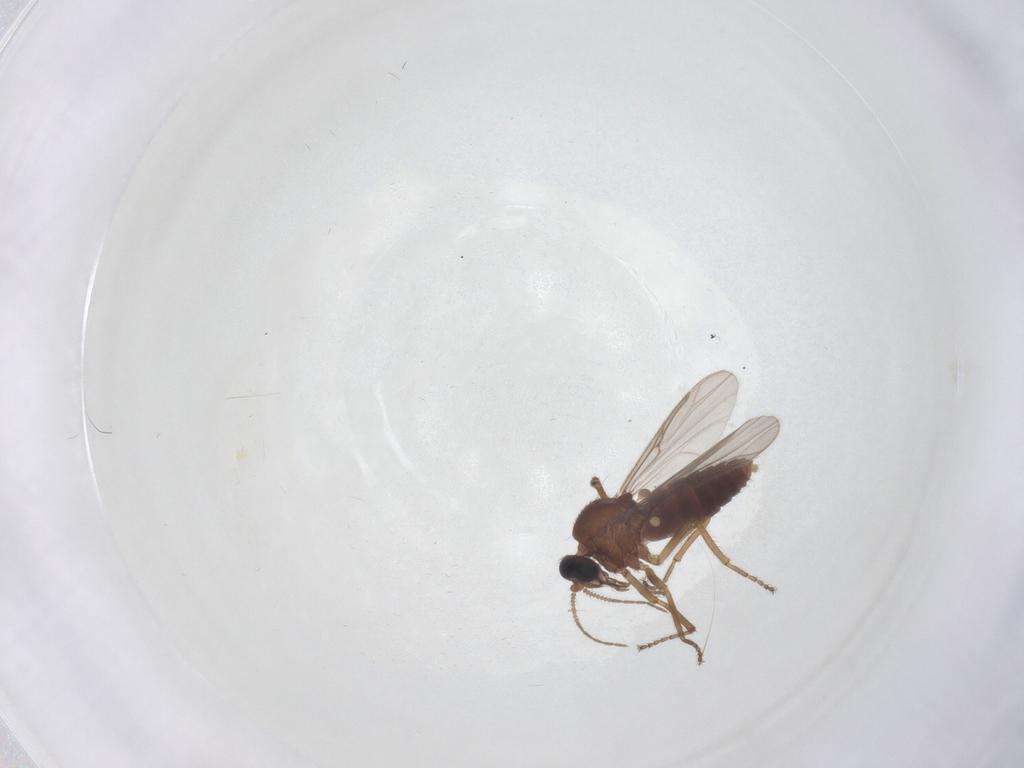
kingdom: Animalia
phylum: Arthropoda
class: Insecta
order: Diptera
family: Ceratopogonidae
